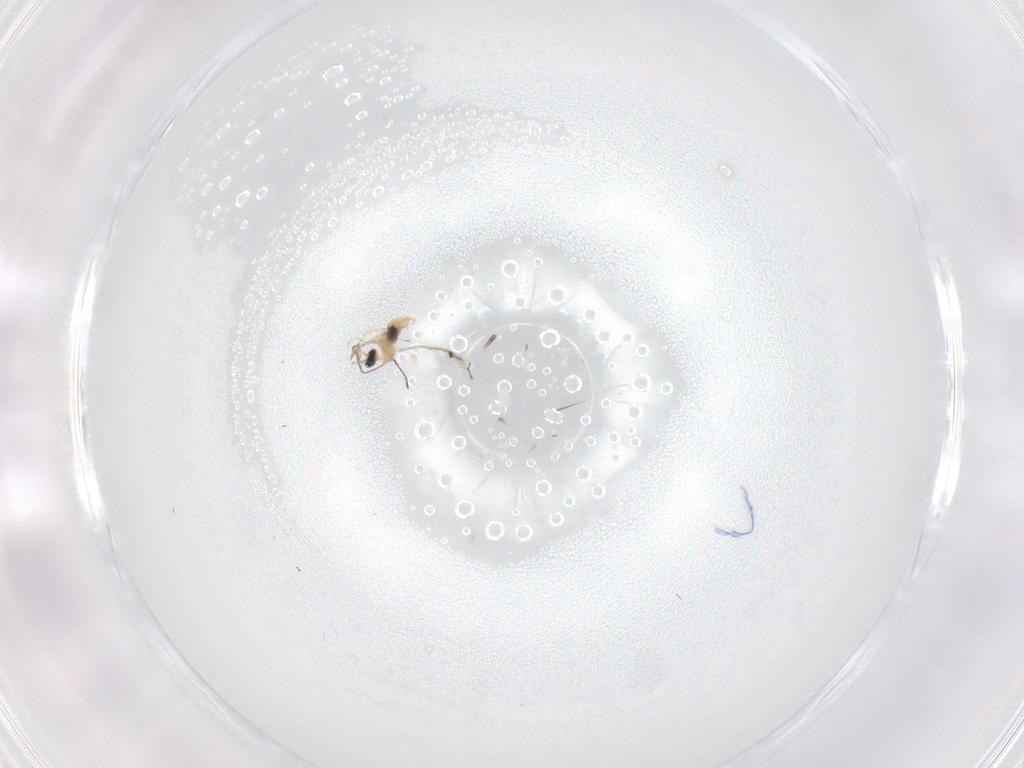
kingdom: Animalia
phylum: Arthropoda
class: Insecta
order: Diptera
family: Cecidomyiidae
